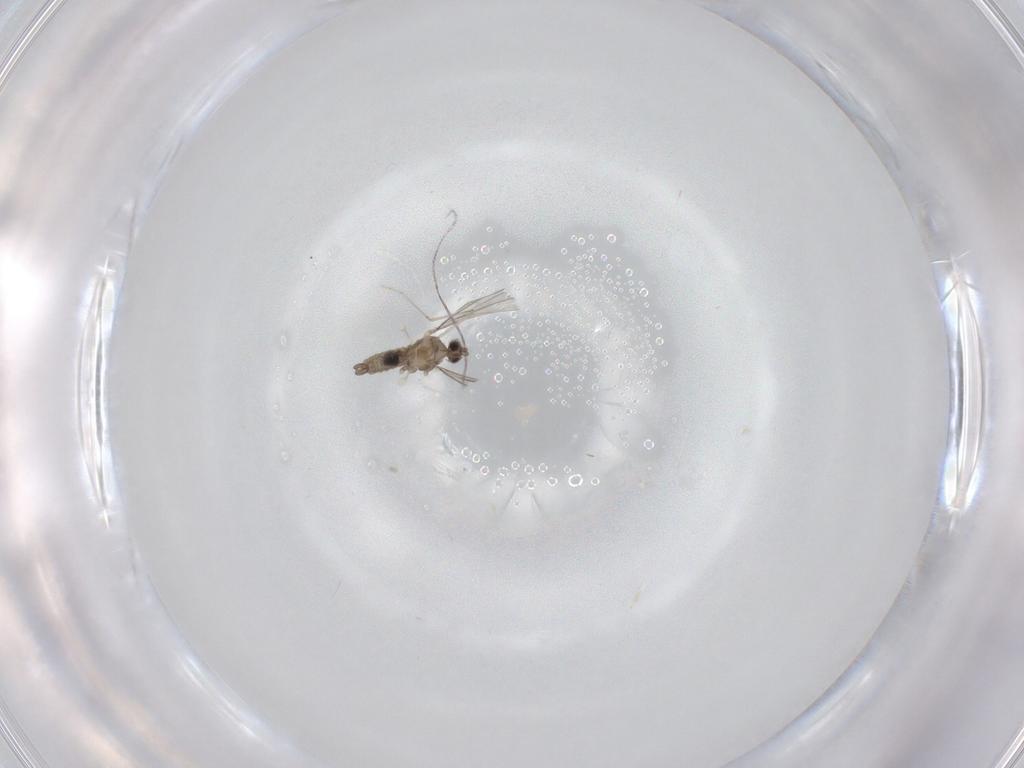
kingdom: Animalia
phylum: Arthropoda
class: Insecta
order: Diptera
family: Cecidomyiidae
